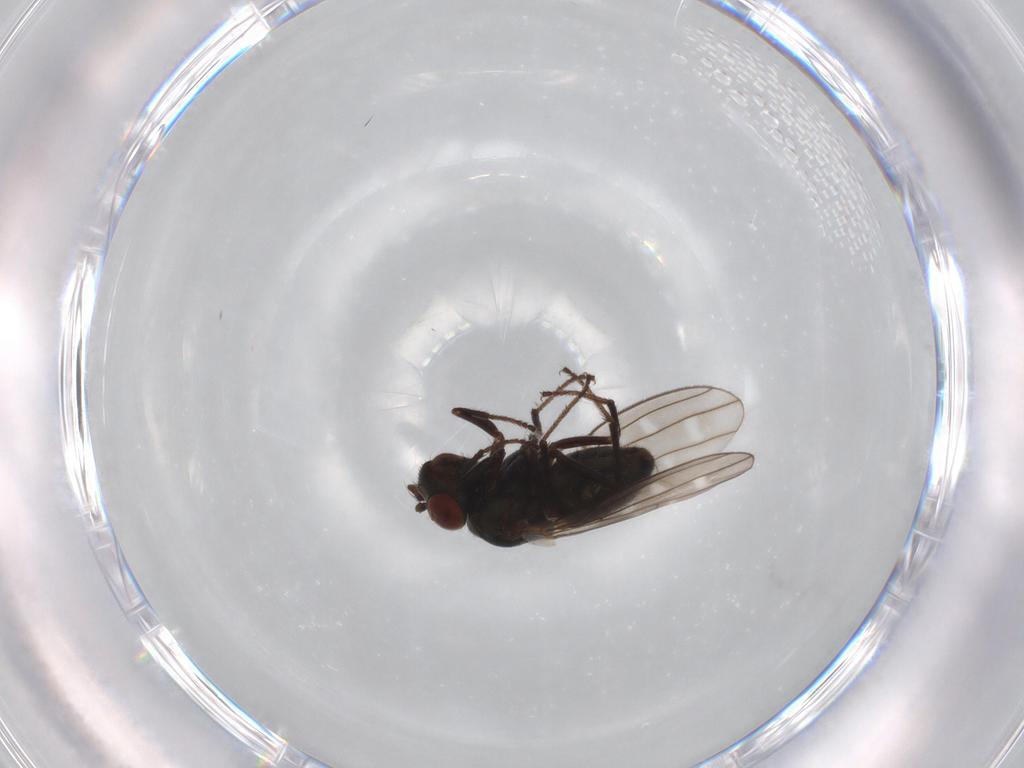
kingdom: Animalia
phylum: Arthropoda
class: Insecta
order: Diptera
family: Ephydridae
